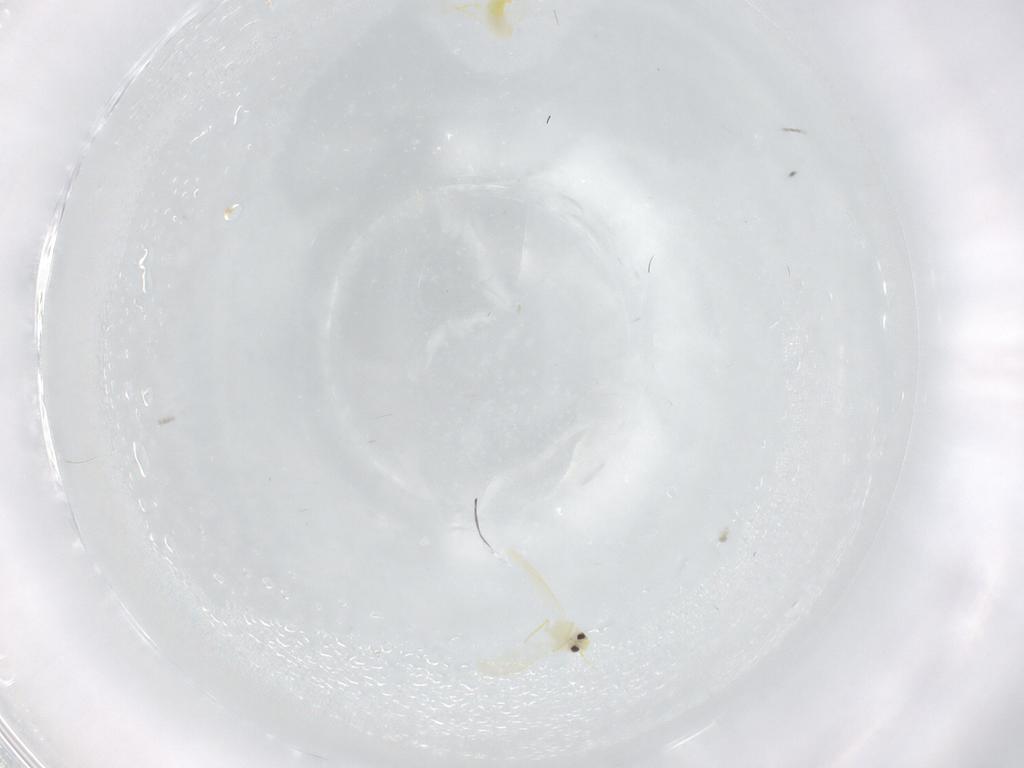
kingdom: Animalia
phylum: Arthropoda
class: Insecta
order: Hemiptera
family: Aleyrodidae
